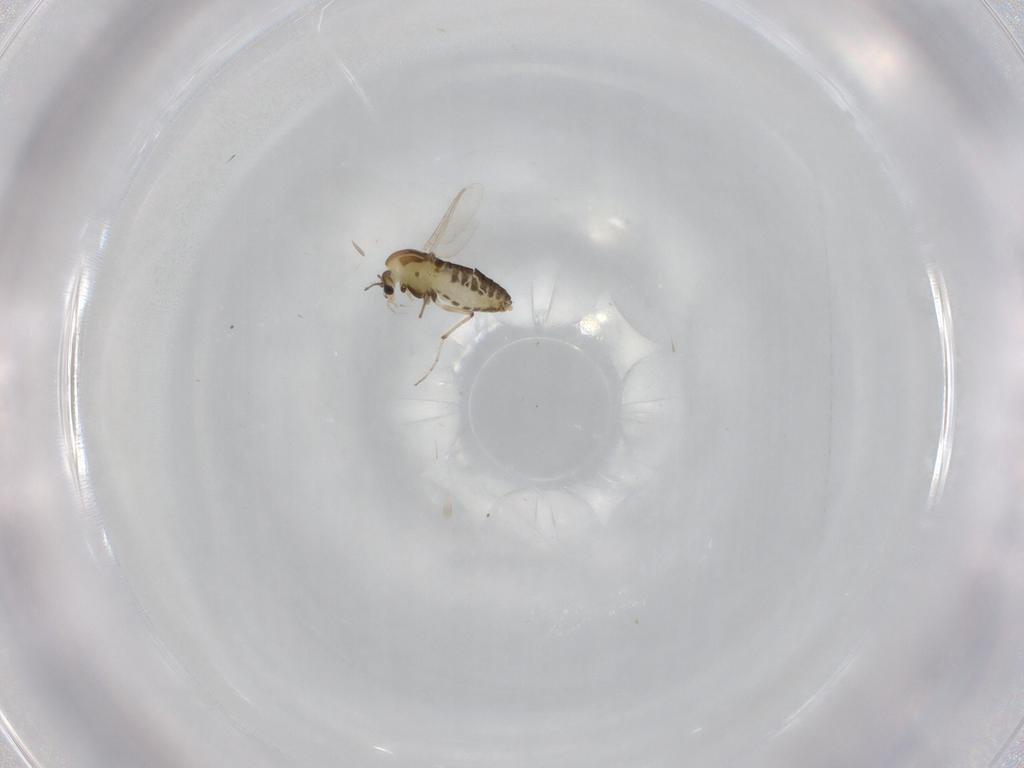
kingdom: Animalia
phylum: Arthropoda
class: Insecta
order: Diptera
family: Chironomidae
